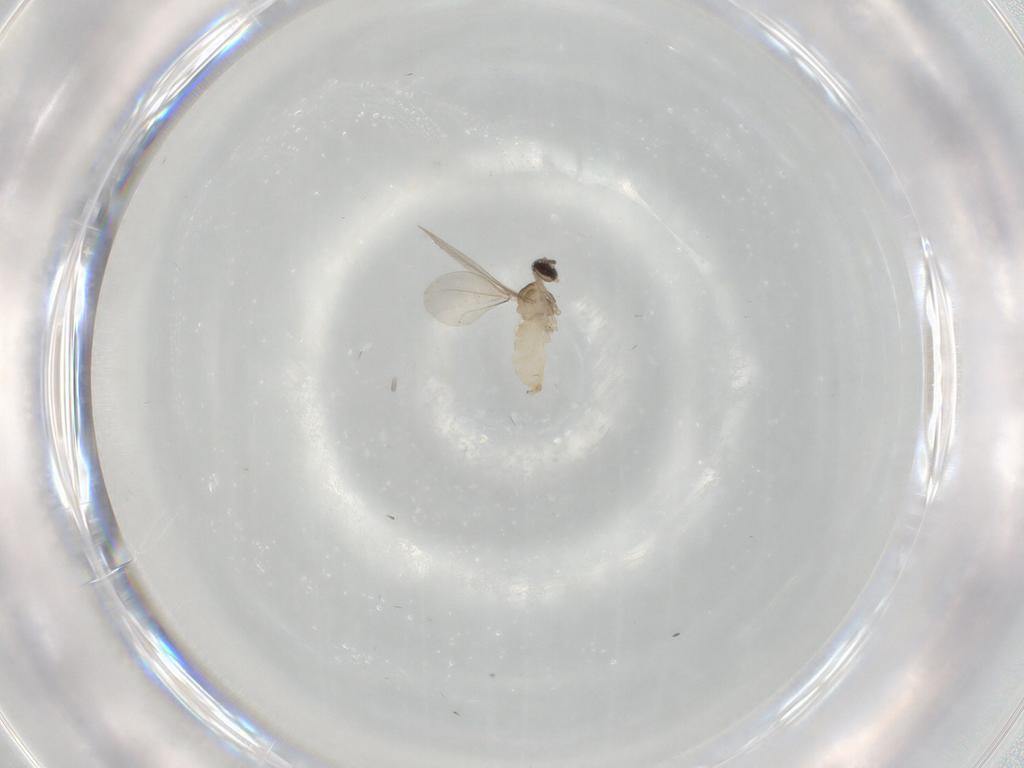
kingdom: Animalia
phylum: Arthropoda
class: Insecta
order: Diptera
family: Cecidomyiidae
